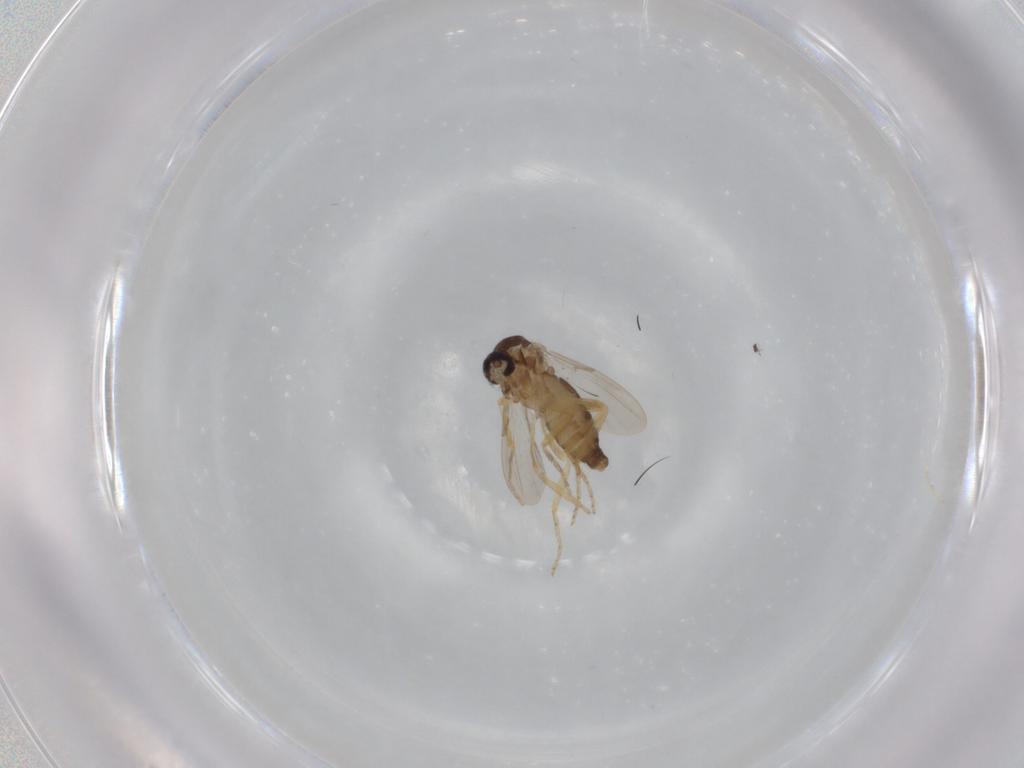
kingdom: Animalia
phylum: Arthropoda
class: Insecta
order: Diptera
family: Ceratopogonidae
